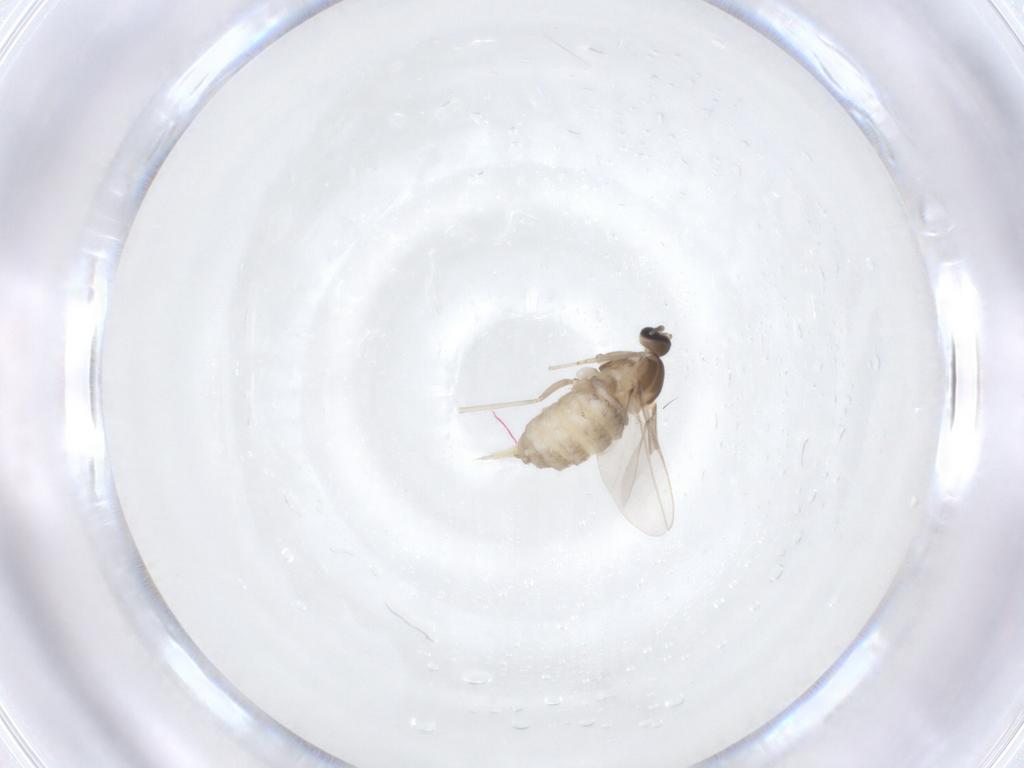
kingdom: Animalia
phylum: Arthropoda
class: Insecta
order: Diptera
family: Cecidomyiidae
